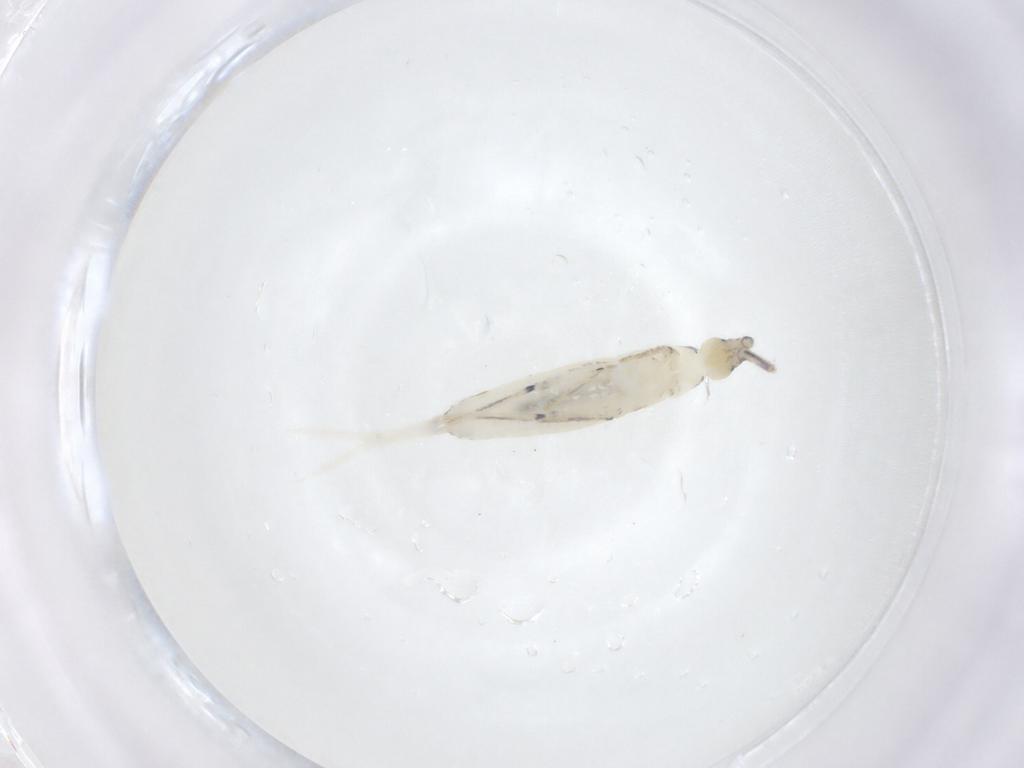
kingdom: Animalia
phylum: Arthropoda
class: Collembola
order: Entomobryomorpha
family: Entomobryidae
